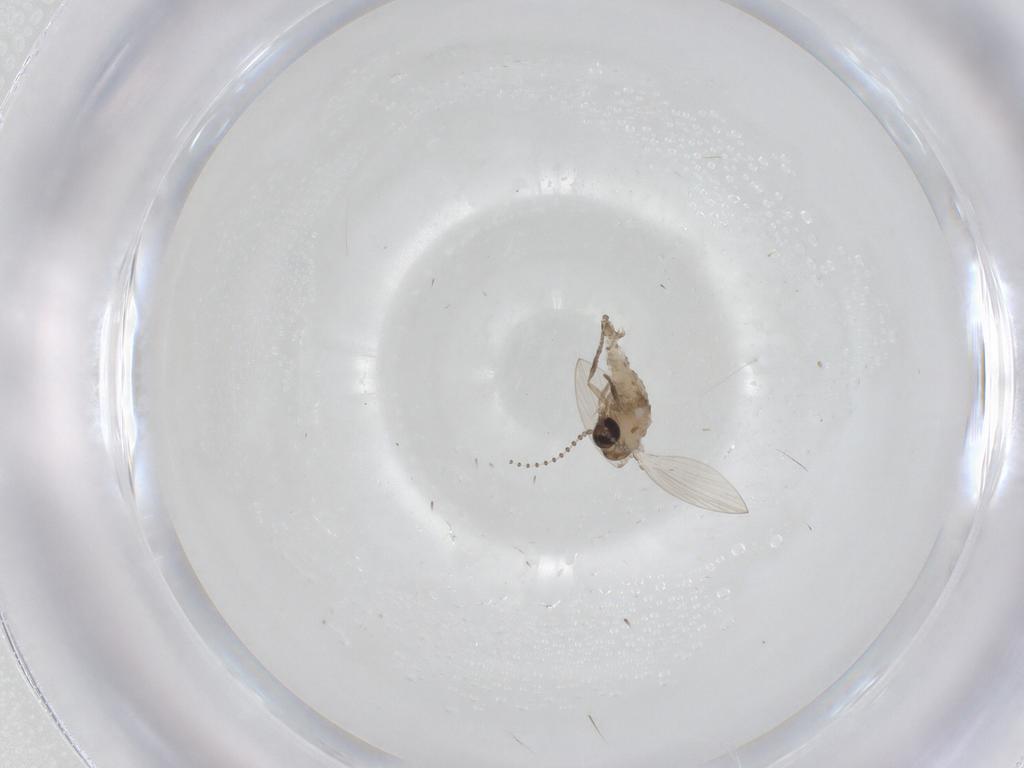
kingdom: Animalia
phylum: Arthropoda
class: Insecta
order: Diptera
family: Psychodidae
